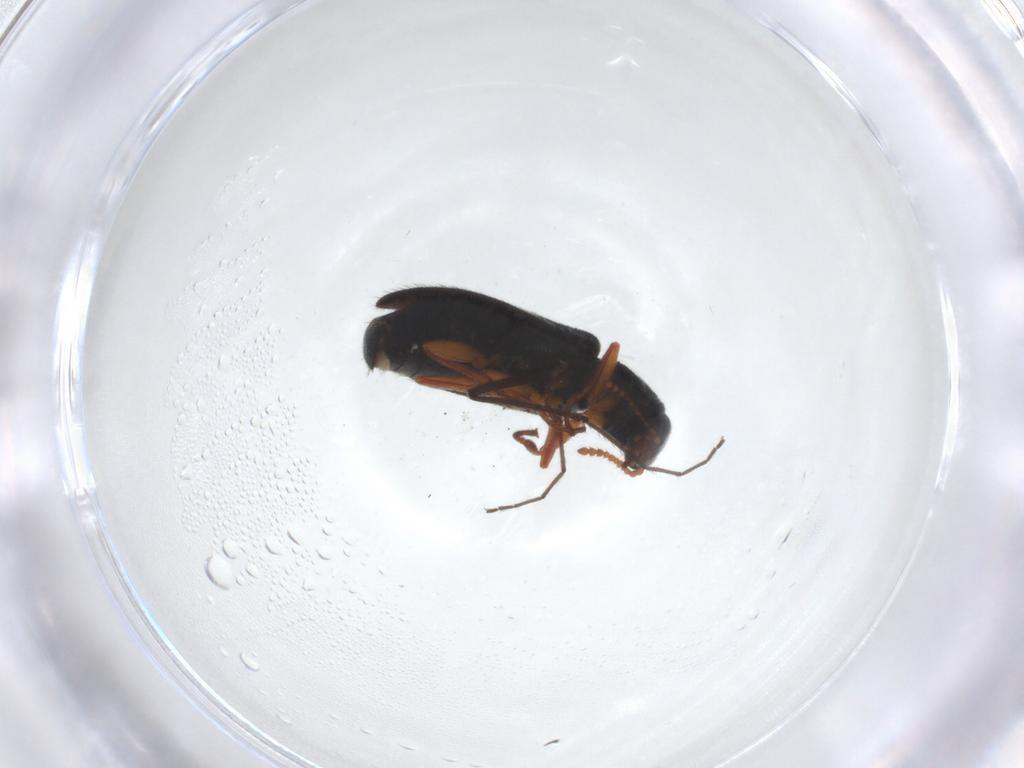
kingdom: Animalia
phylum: Arthropoda
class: Insecta
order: Coleoptera
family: Melyridae
